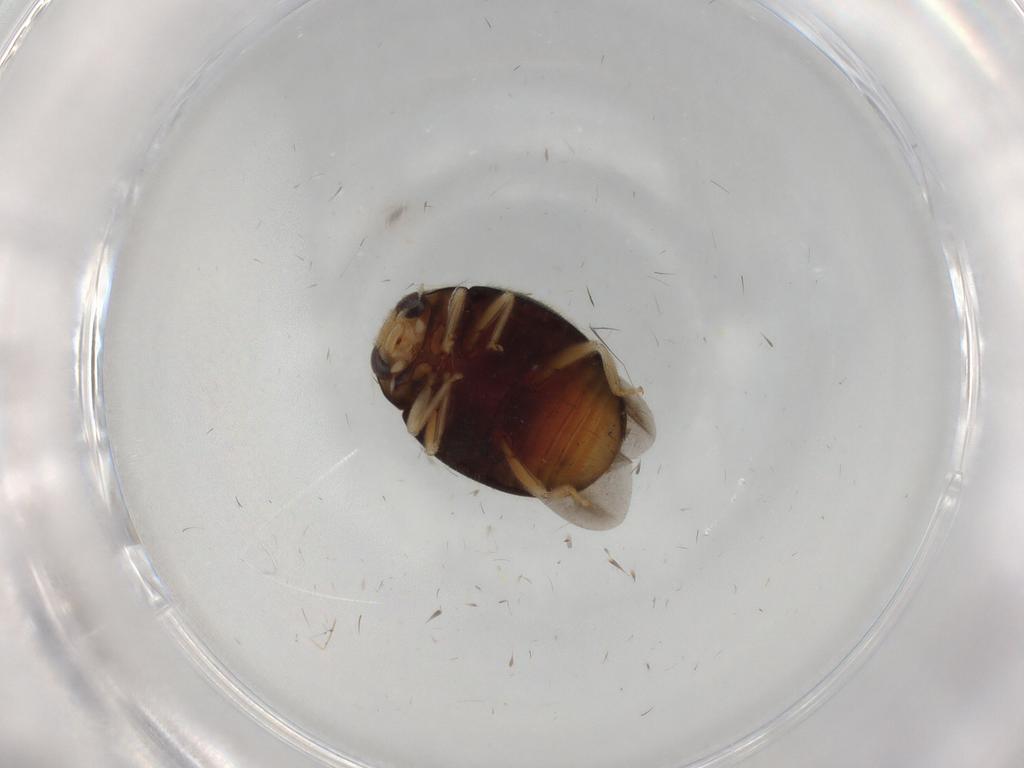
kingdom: Animalia
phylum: Arthropoda
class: Insecta
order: Coleoptera
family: Coccinellidae
